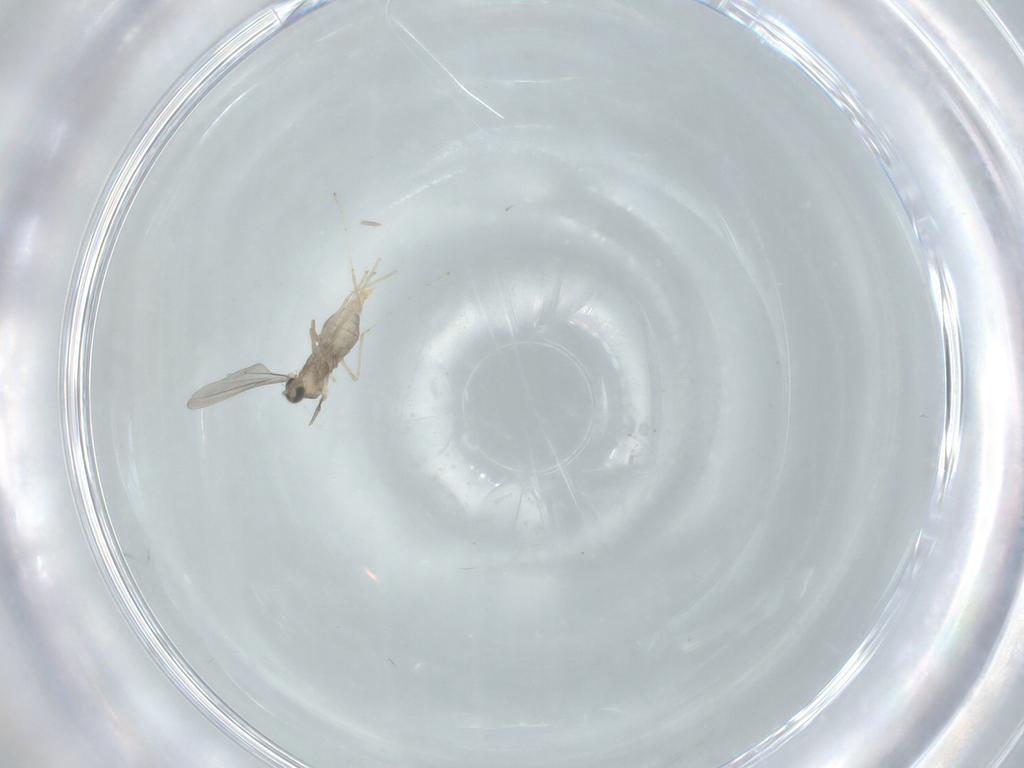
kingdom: Animalia
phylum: Arthropoda
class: Insecta
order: Diptera
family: Cecidomyiidae
